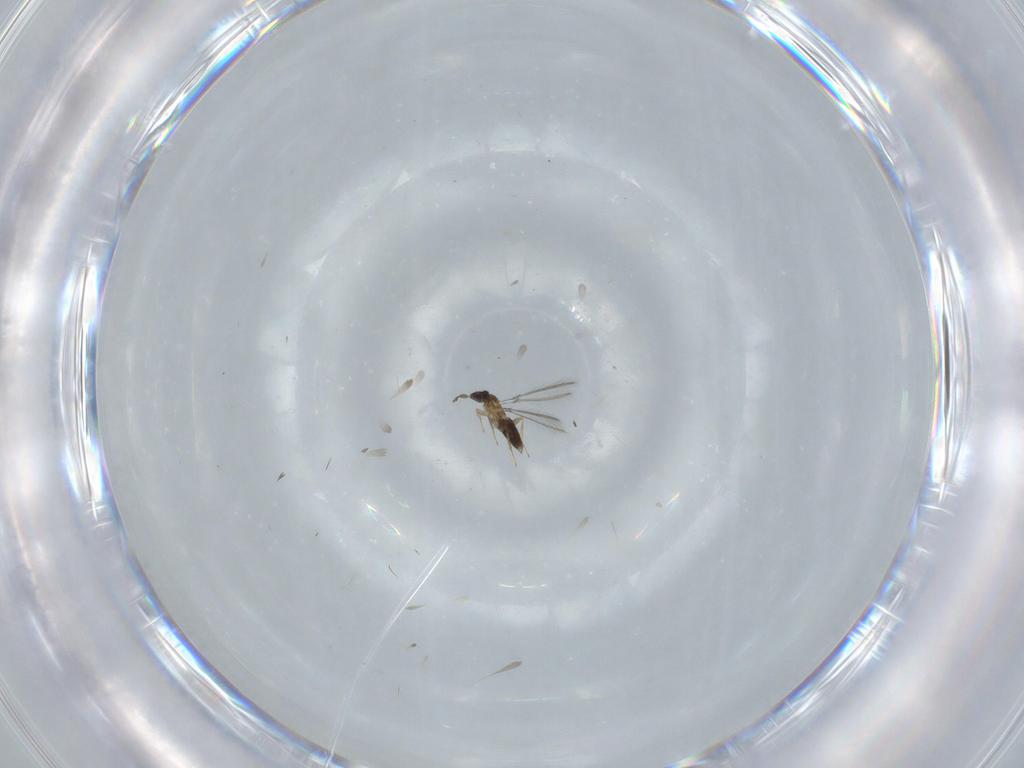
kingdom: Animalia
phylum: Arthropoda
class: Insecta
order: Hymenoptera
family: Mymaridae
